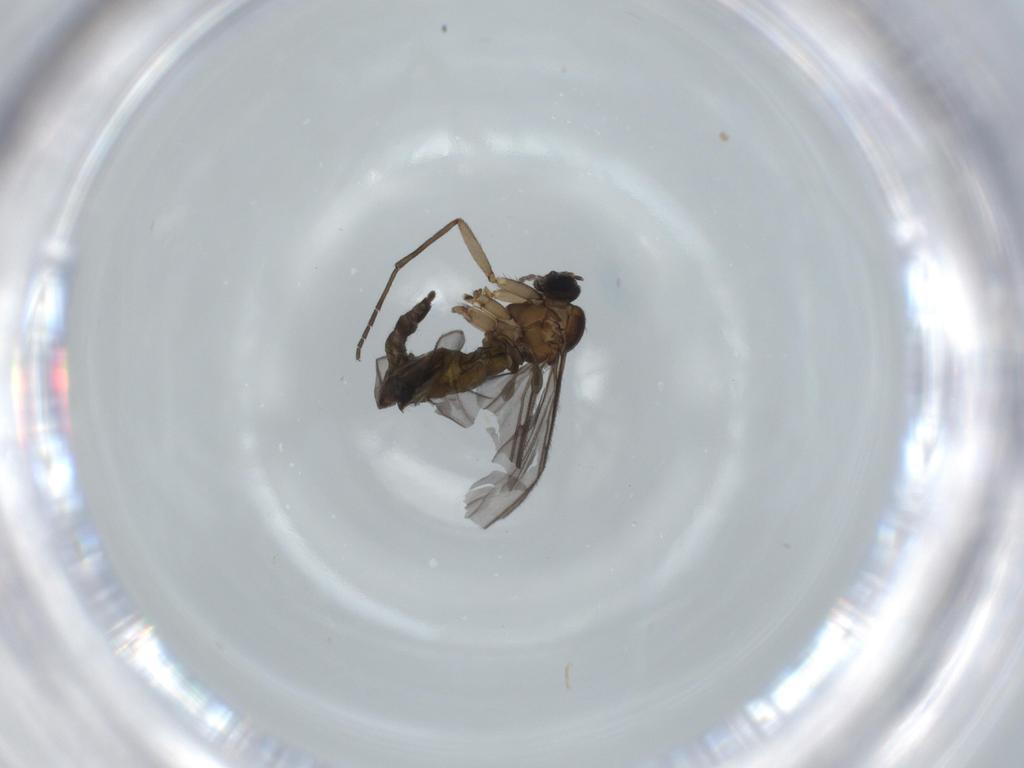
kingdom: Animalia
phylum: Arthropoda
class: Insecta
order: Diptera
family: Sciaridae
